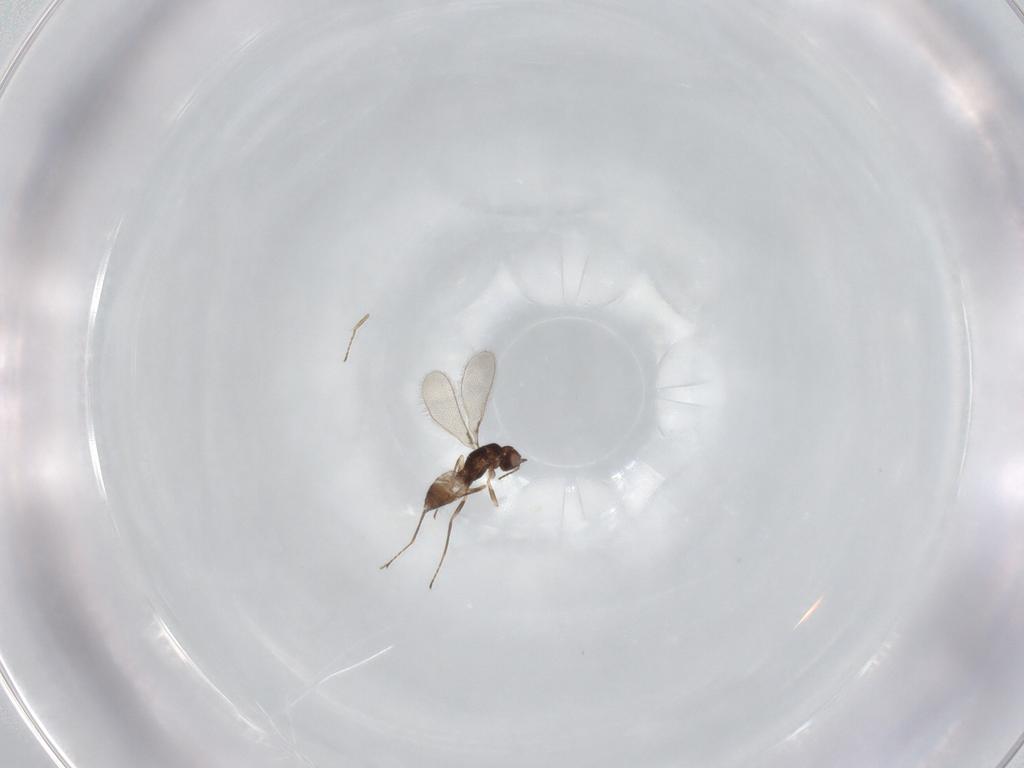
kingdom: Animalia
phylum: Arthropoda
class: Insecta
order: Hymenoptera
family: Mymaridae
